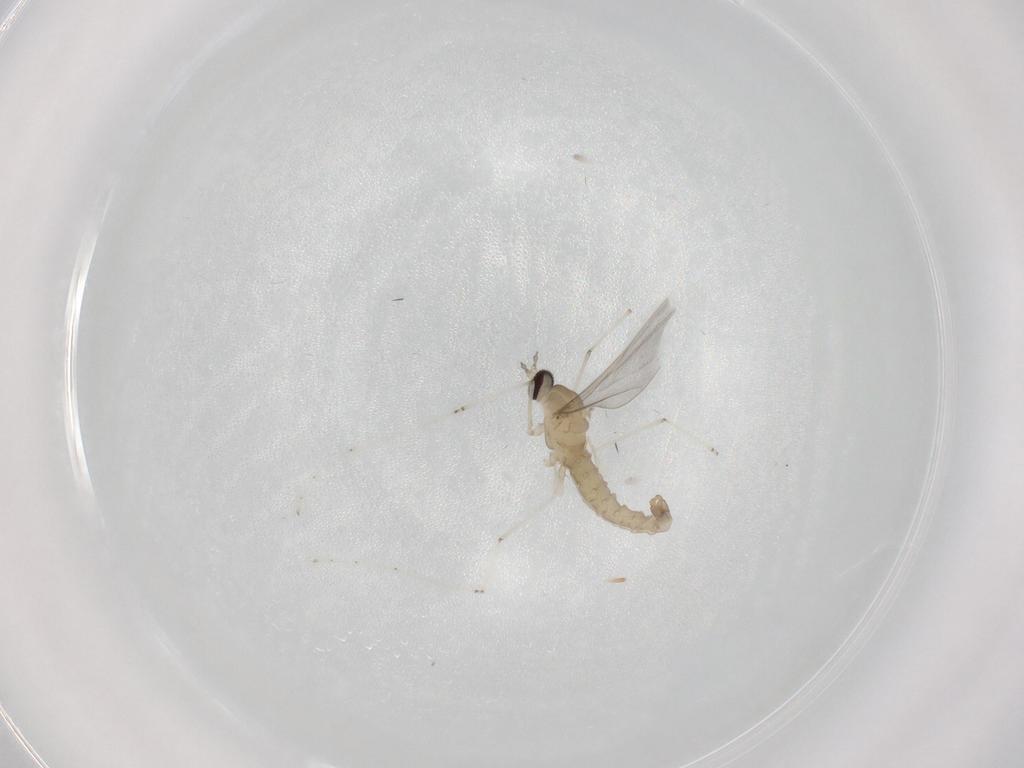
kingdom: Animalia
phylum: Arthropoda
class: Insecta
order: Diptera
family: Chironomidae
